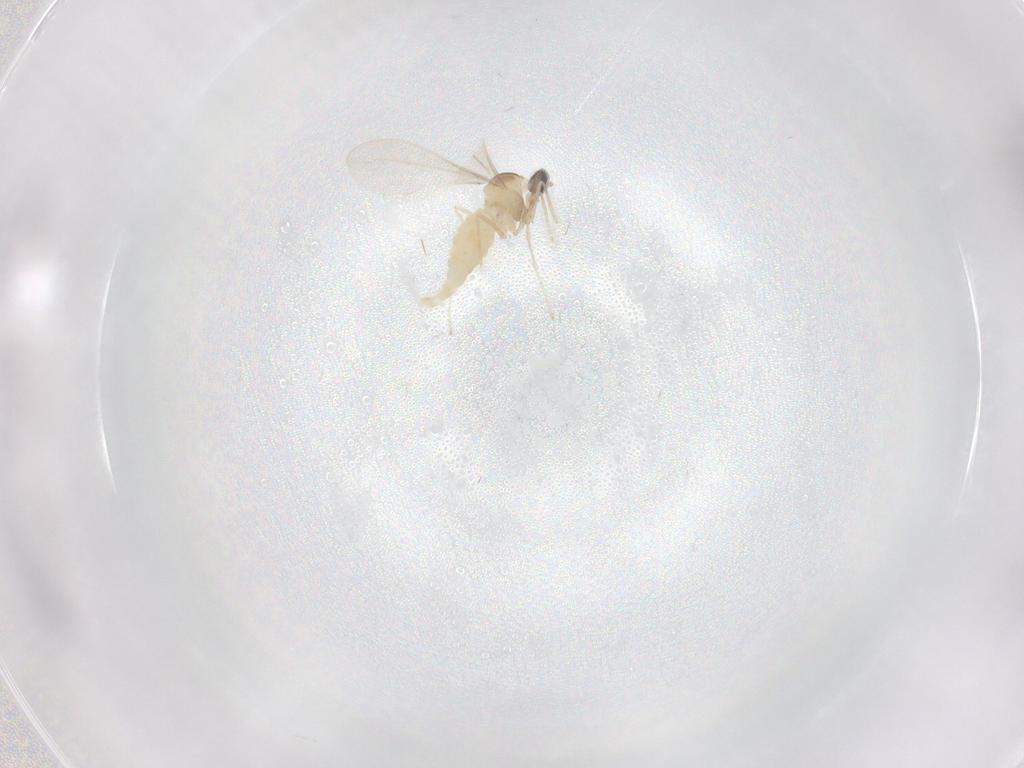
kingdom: Animalia
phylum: Arthropoda
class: Insecta
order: Diptera
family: Cecidomyiidae
